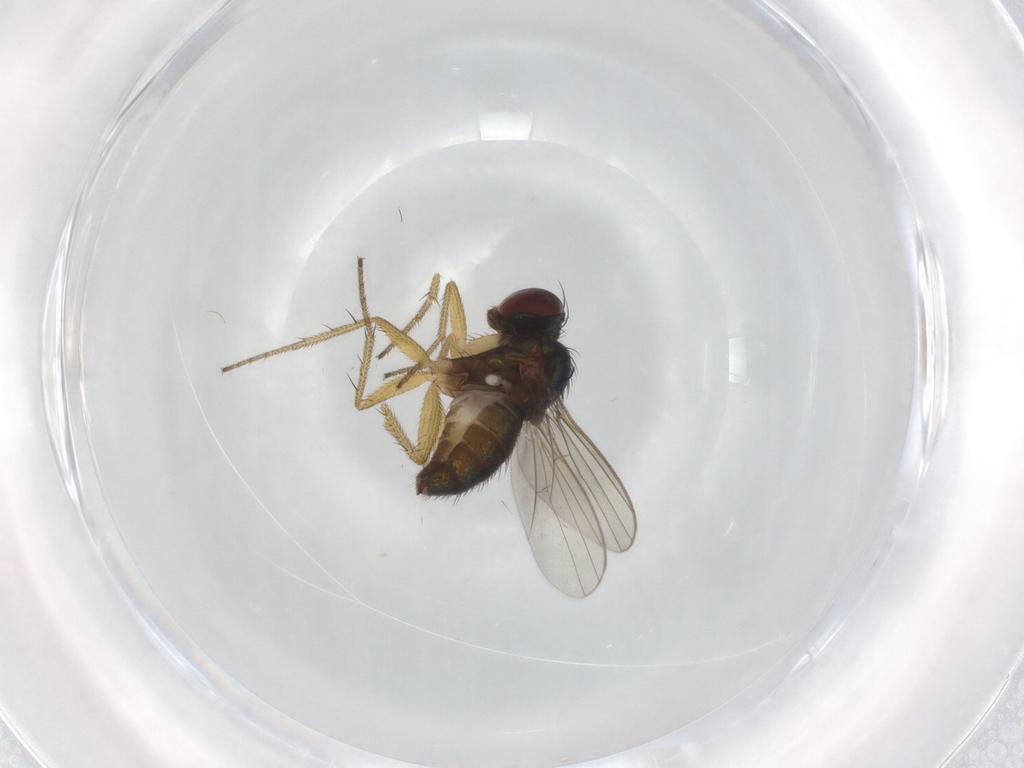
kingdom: Animalia
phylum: Arthropoda
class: Insecta
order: Diptera
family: Dolichopodidae
